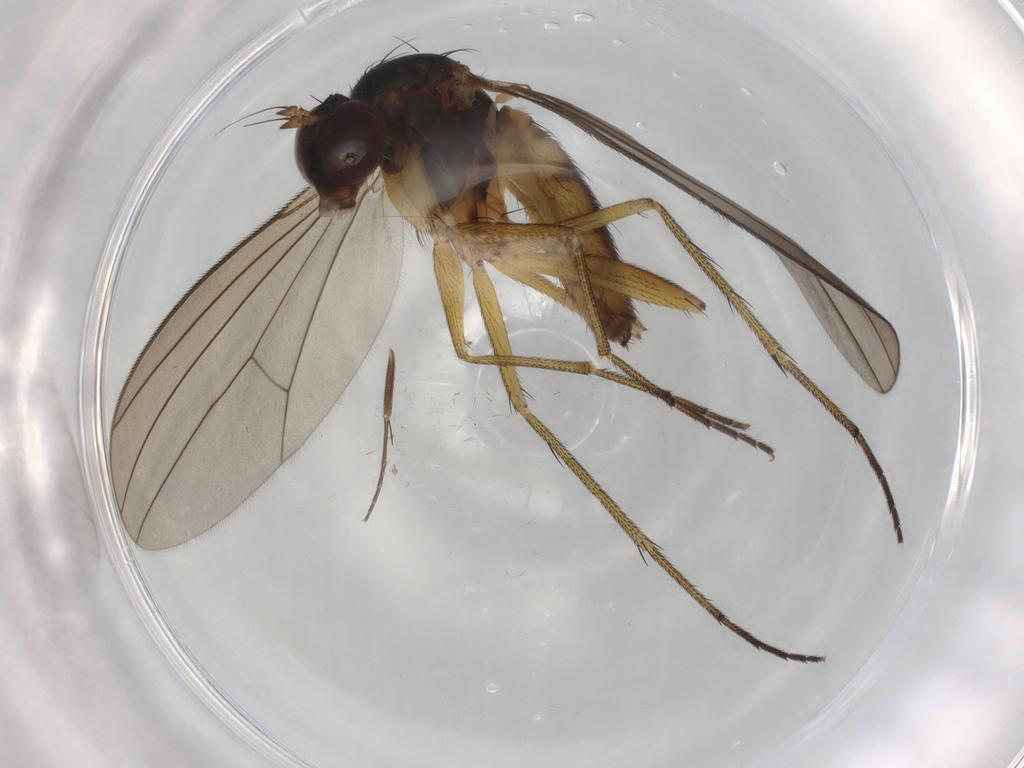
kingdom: Animalia
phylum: Arthropoda
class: Insecta
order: Diptera
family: Dolichopodidae
